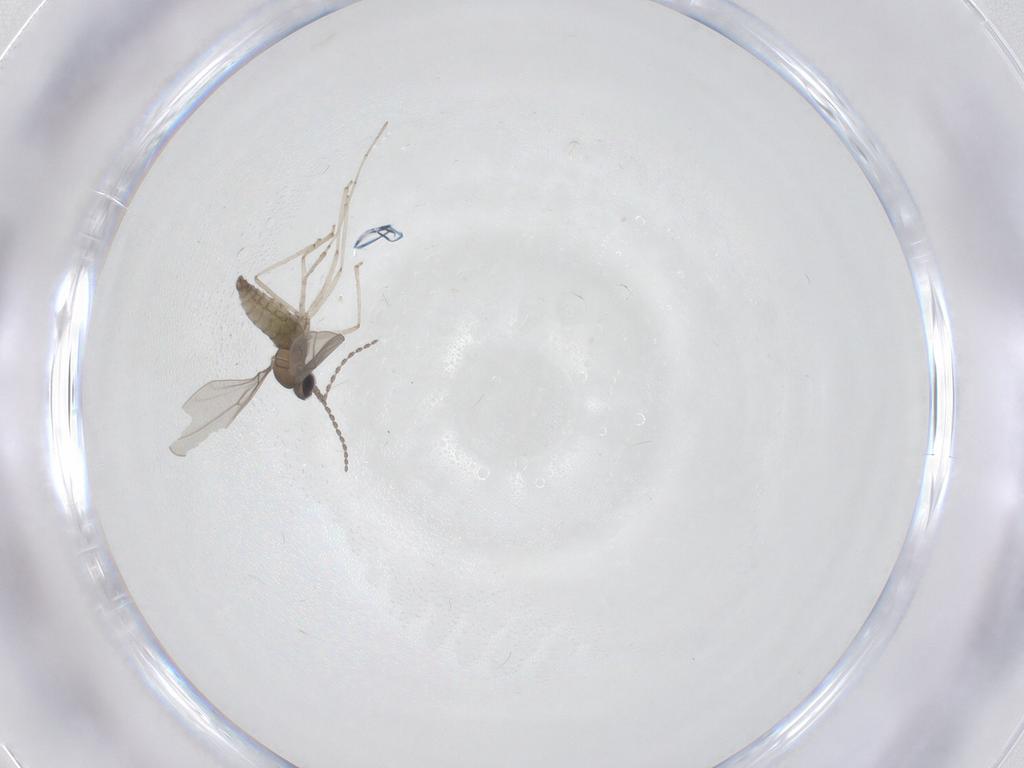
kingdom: Animalia
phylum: Arthropoda
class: Insecta
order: Diptera
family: Cecidomyiidae
